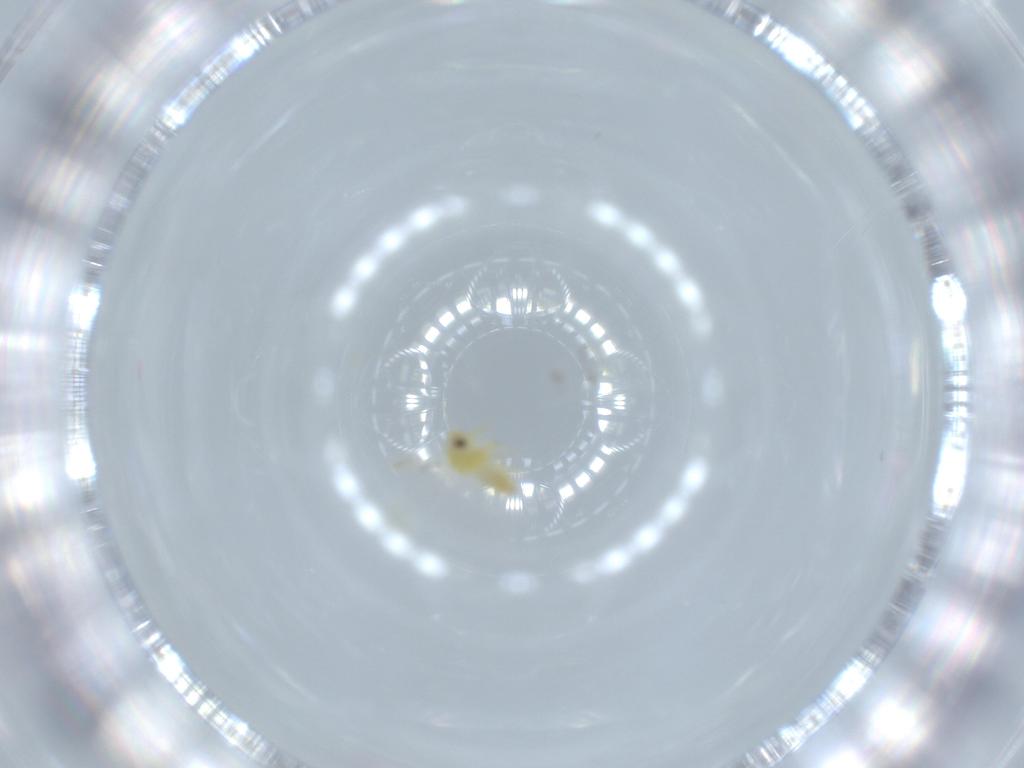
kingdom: Animalia
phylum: Arthropoda
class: Insecta
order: Hemiptera
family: Aleyrodidae
